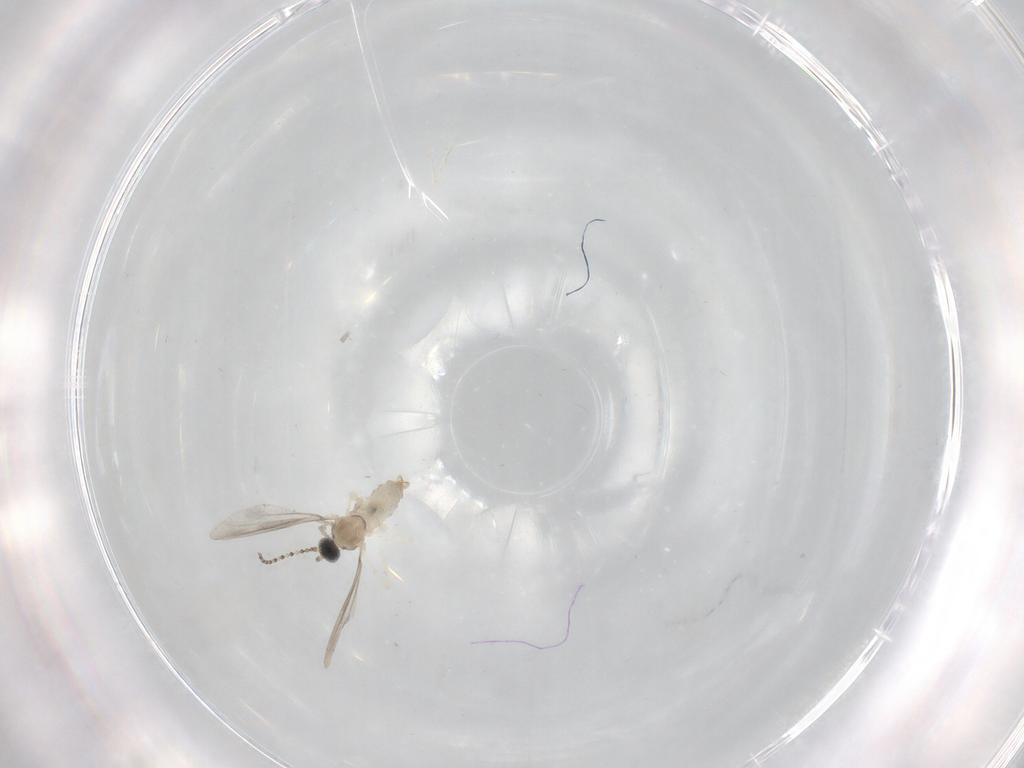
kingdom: Animalia
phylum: Arthropoda
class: Insecta
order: Diptera
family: Cecidomyiidae
